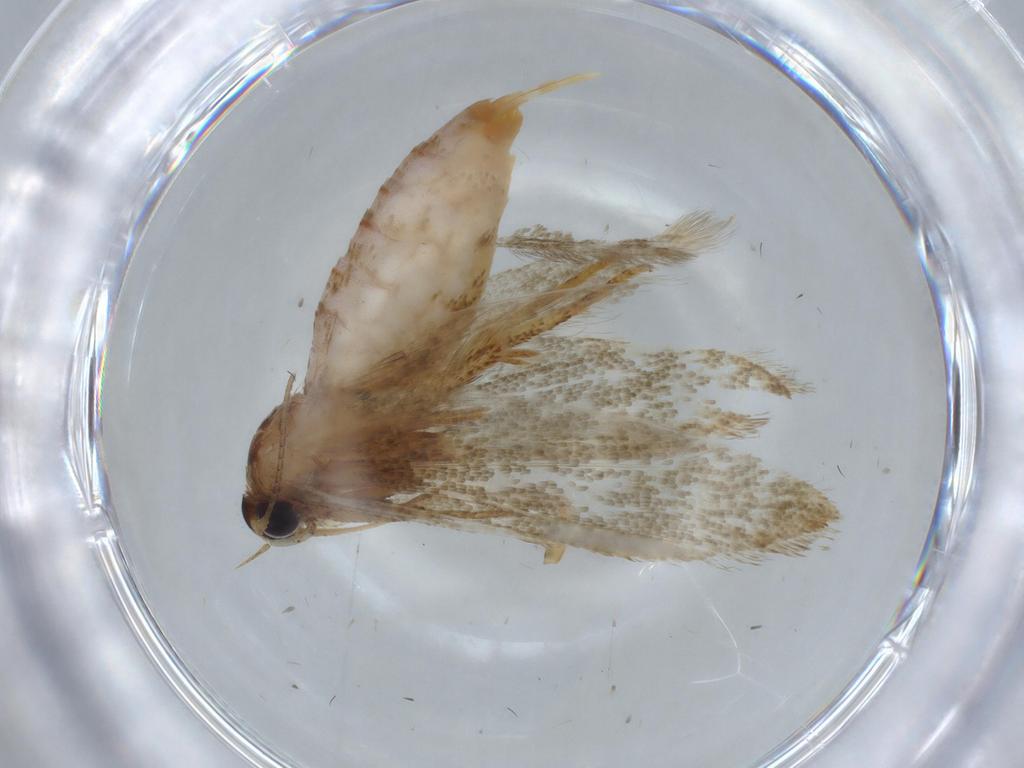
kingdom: Animalia
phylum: Arthropoda
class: Insecta
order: Lepidoptera
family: Blastobasidae
